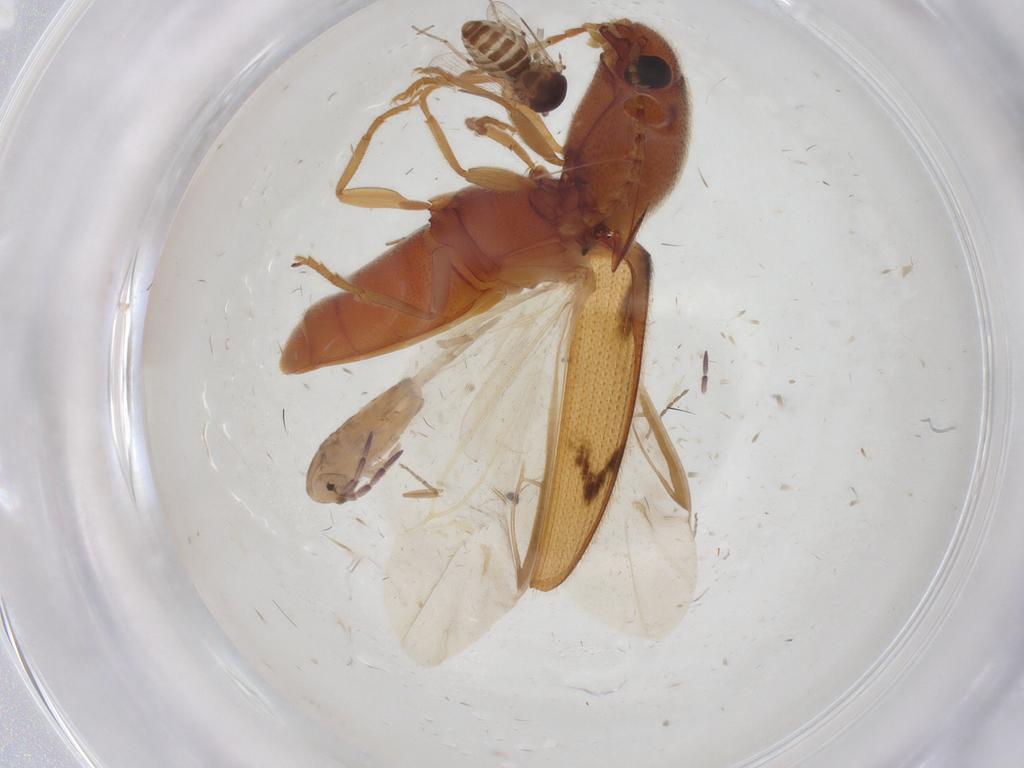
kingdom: Animalia
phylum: Arthropoda
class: Insecta
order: Coleoptera
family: Elateridae
